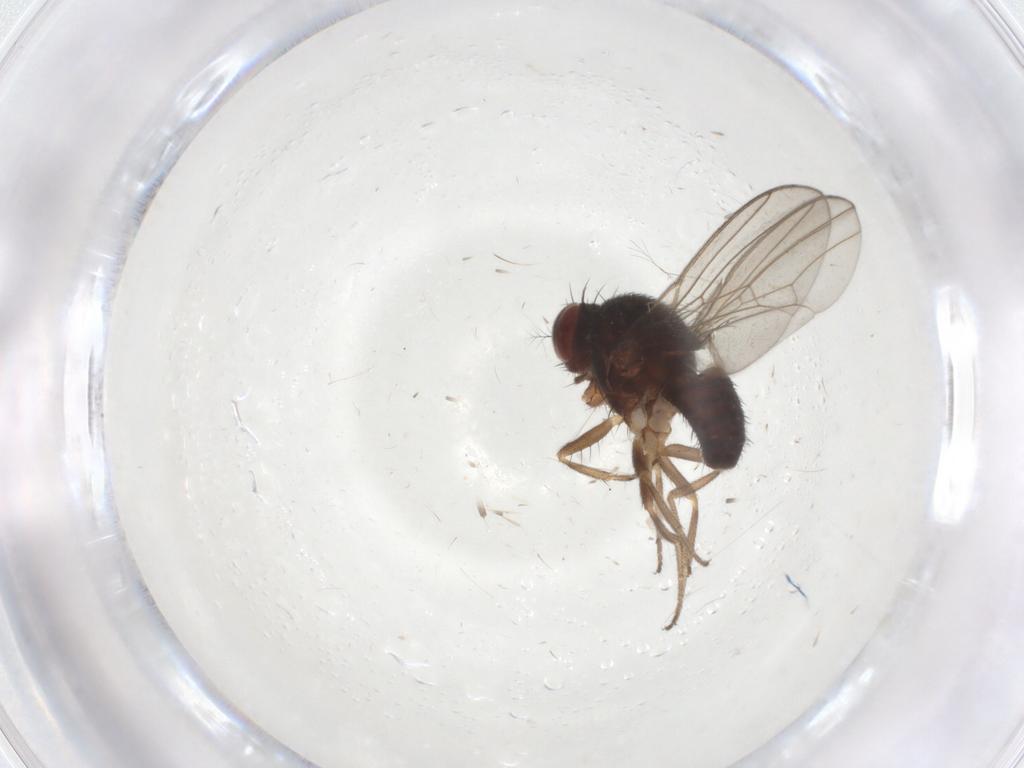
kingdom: Animalia
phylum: Arthropoda
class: Insecta
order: Diptera
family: Drosophilidae
